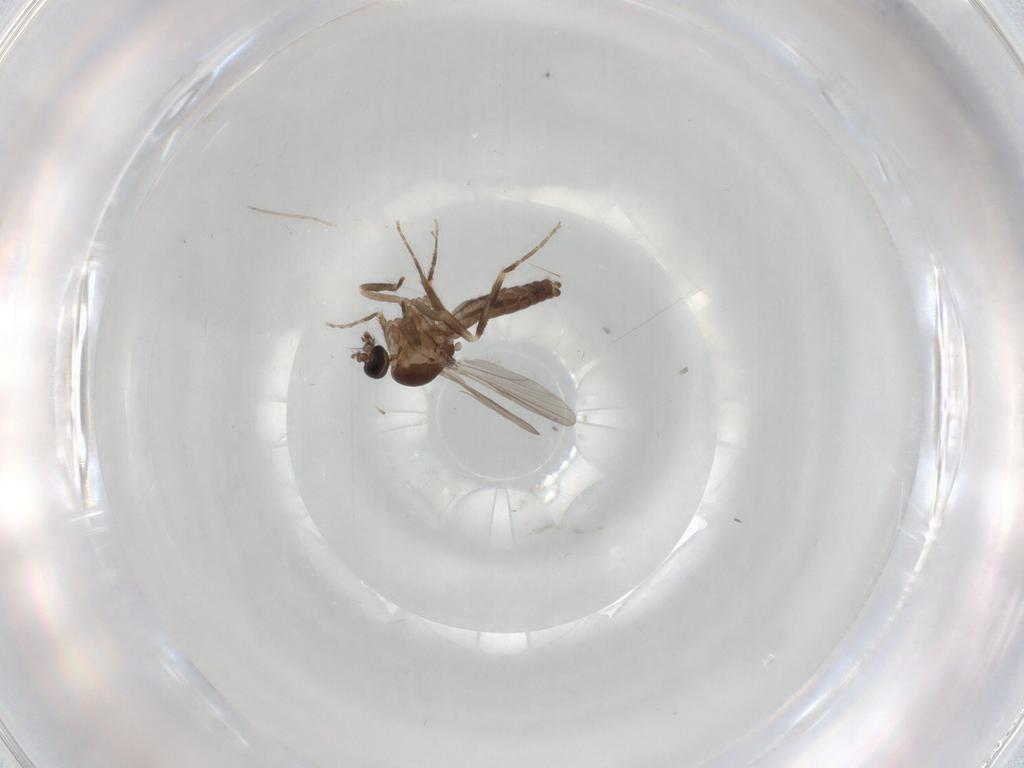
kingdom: Animalia
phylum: Arthropoda
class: Insecta
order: Diptera
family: Ceratopogonidae
